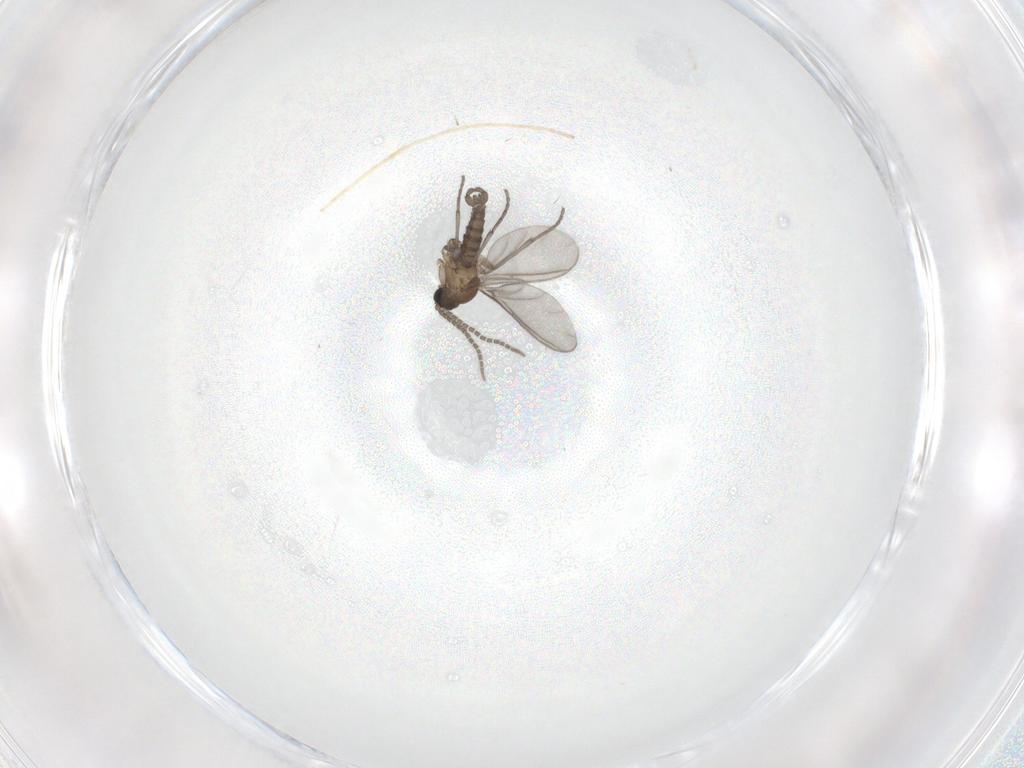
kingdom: Animalia
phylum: Arthropoda
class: Insecta
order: Diptera
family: Sciaridae
